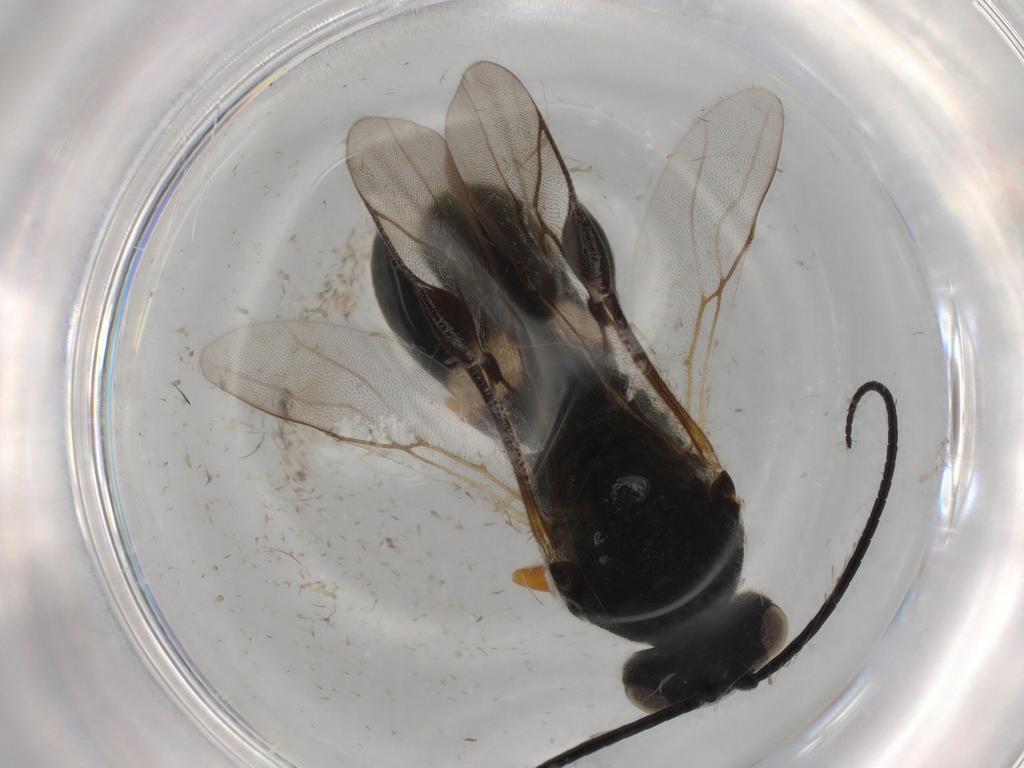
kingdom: Animalia
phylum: Arthropoda
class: Insecta
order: Hymenoptera
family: Braconidae
